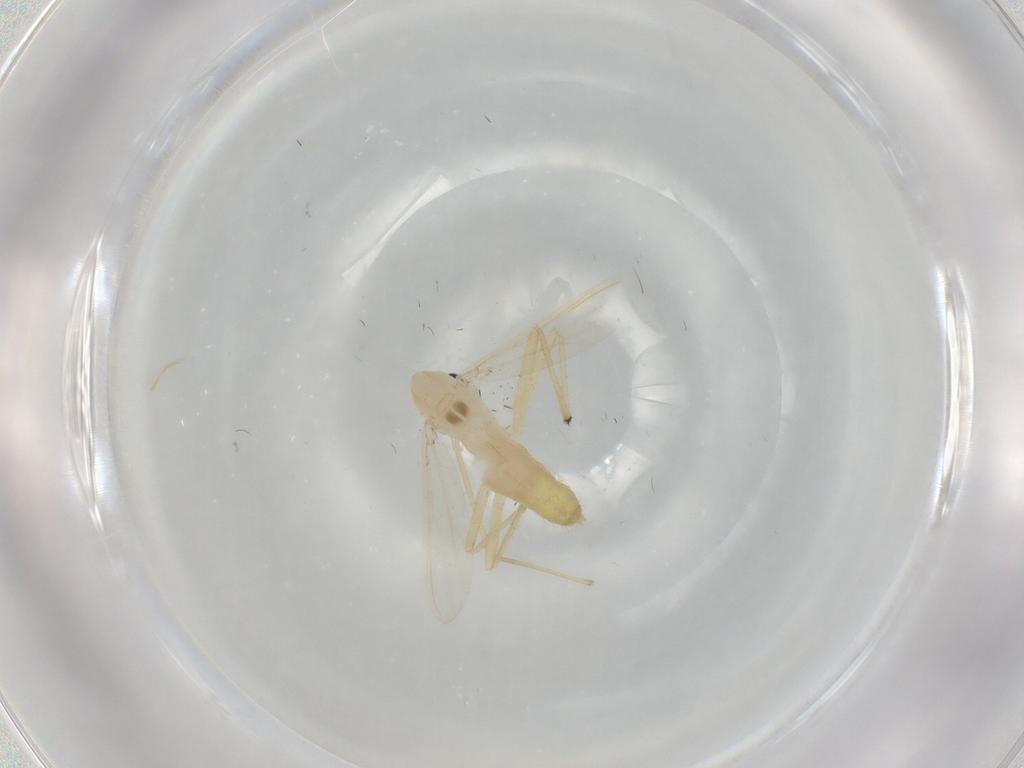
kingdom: Animalia
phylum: Arthropoda
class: Insecta
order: Diptera
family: Chironomidae
